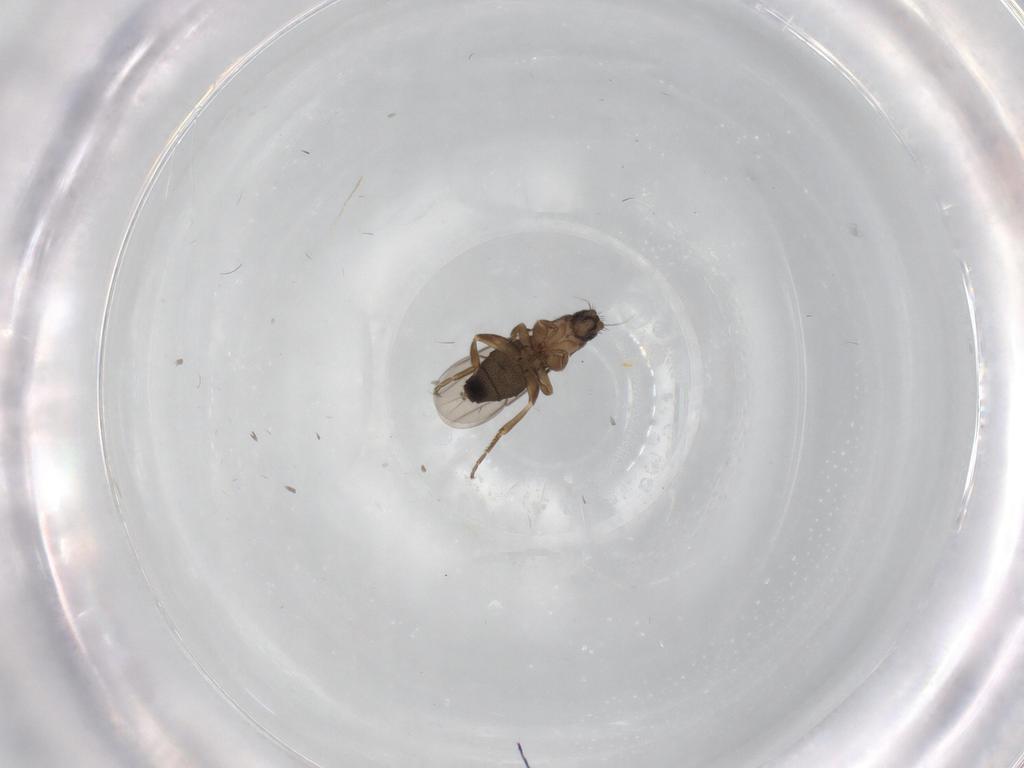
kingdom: Animalia
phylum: Arthropoda
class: Insecta
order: Diptera
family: Phoridae
